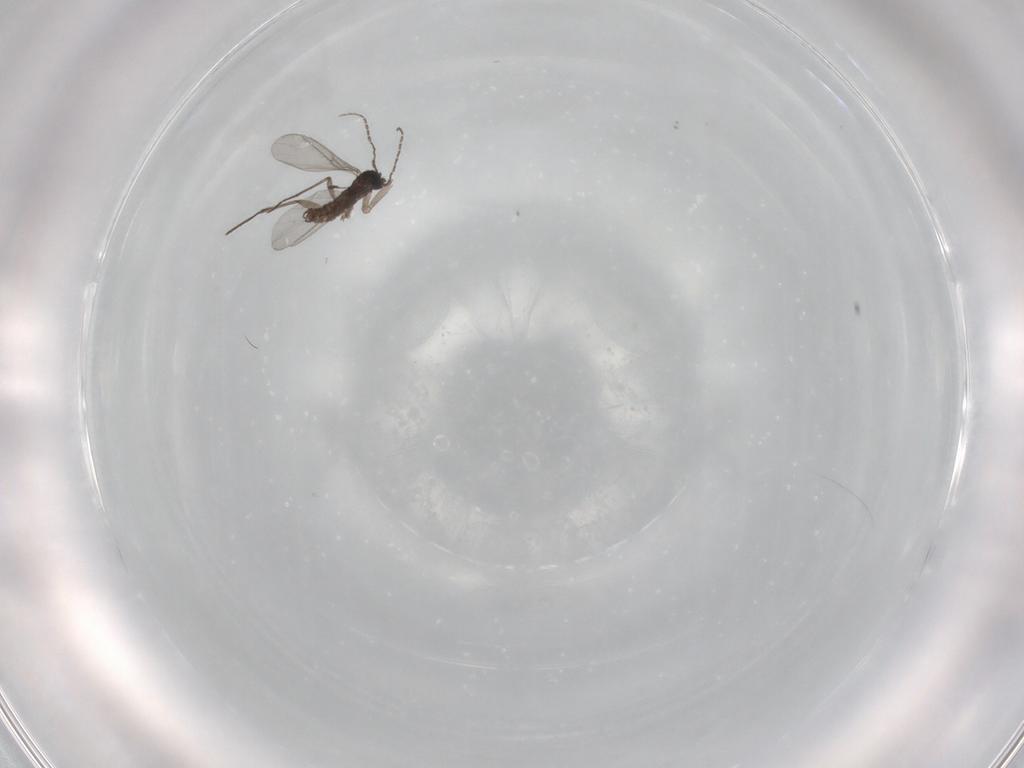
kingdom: Animalia
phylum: Arthropoda
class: Insecta
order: Diptera
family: Sciaridae
